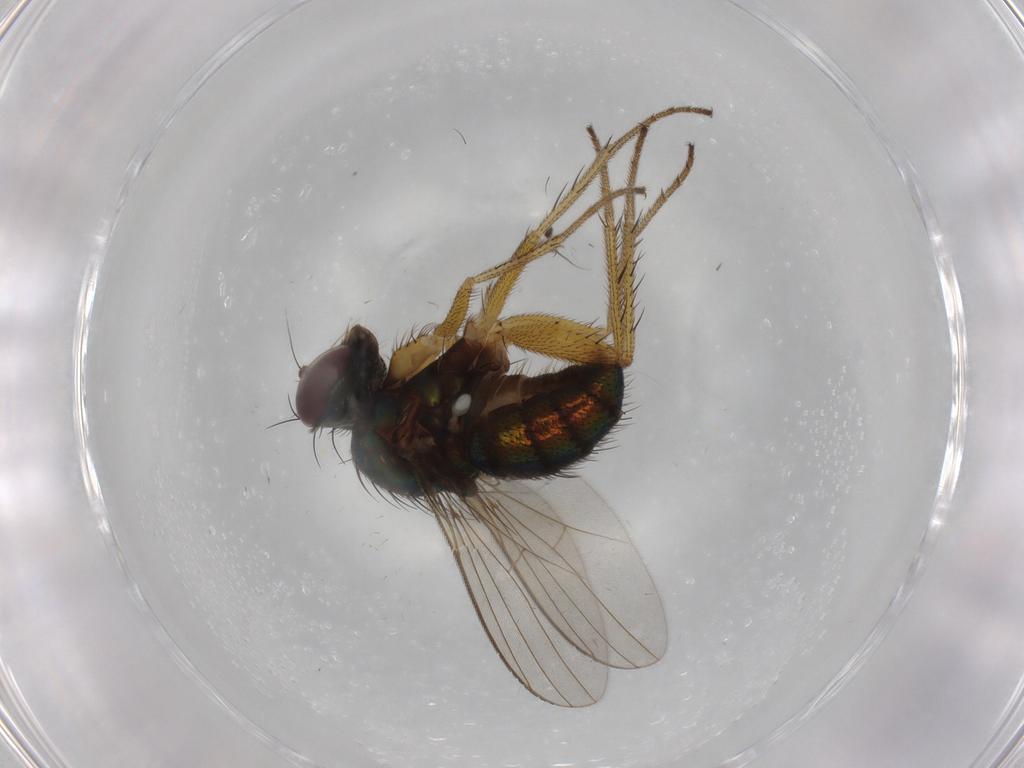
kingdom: Animalia
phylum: Arthropoda
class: Insecta
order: Diptera
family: Dolichopodidae
